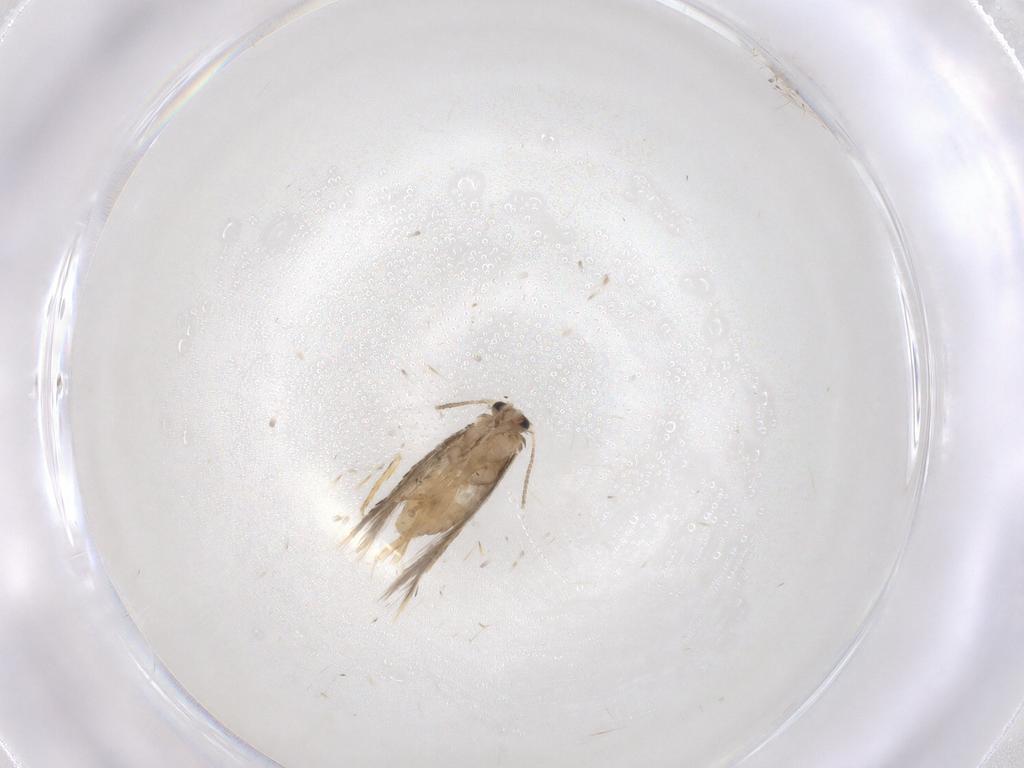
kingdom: Animalia
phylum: Arthropoda
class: Insecta
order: Lepidoptera
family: Nepticulidae
